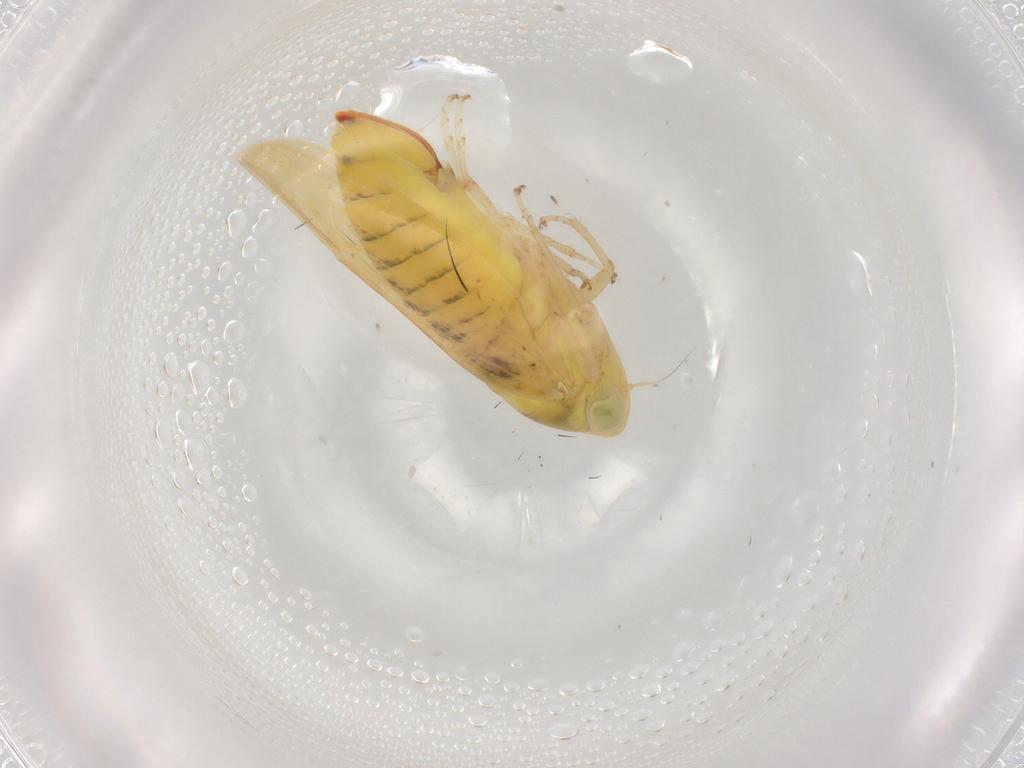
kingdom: Animalia
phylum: Arthropoda
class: Insecta
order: Hemiptera
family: Cicadellidae
